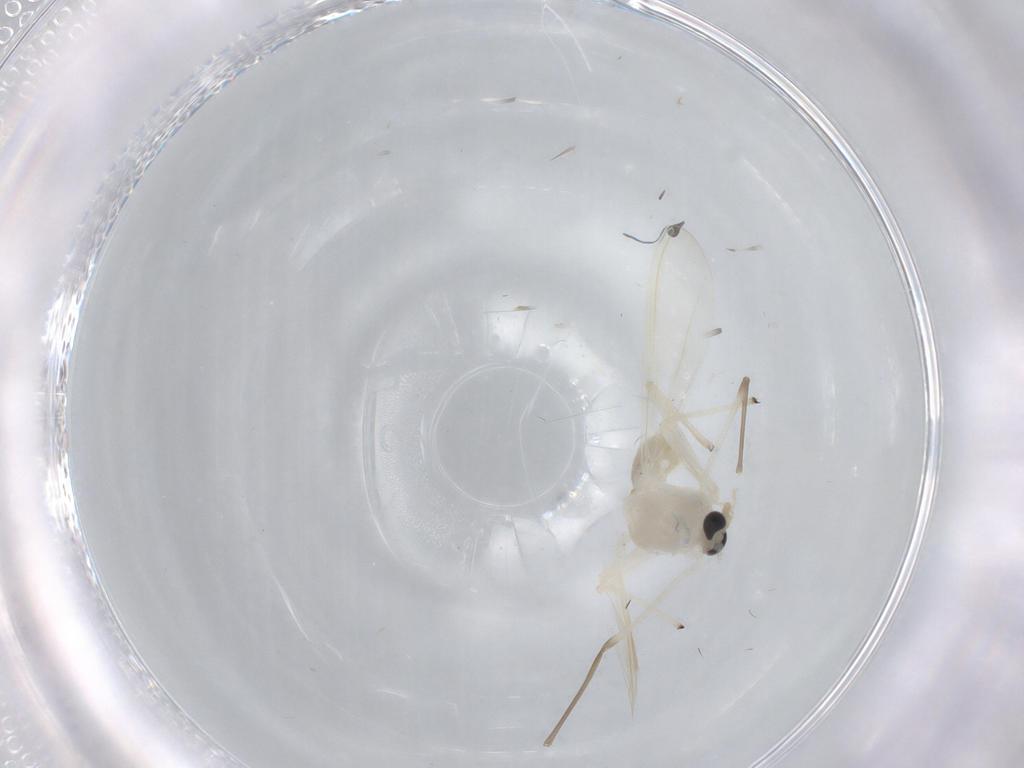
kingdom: Animalia
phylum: Arthropoda
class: Insecta
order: Diptera
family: Chironomidae
